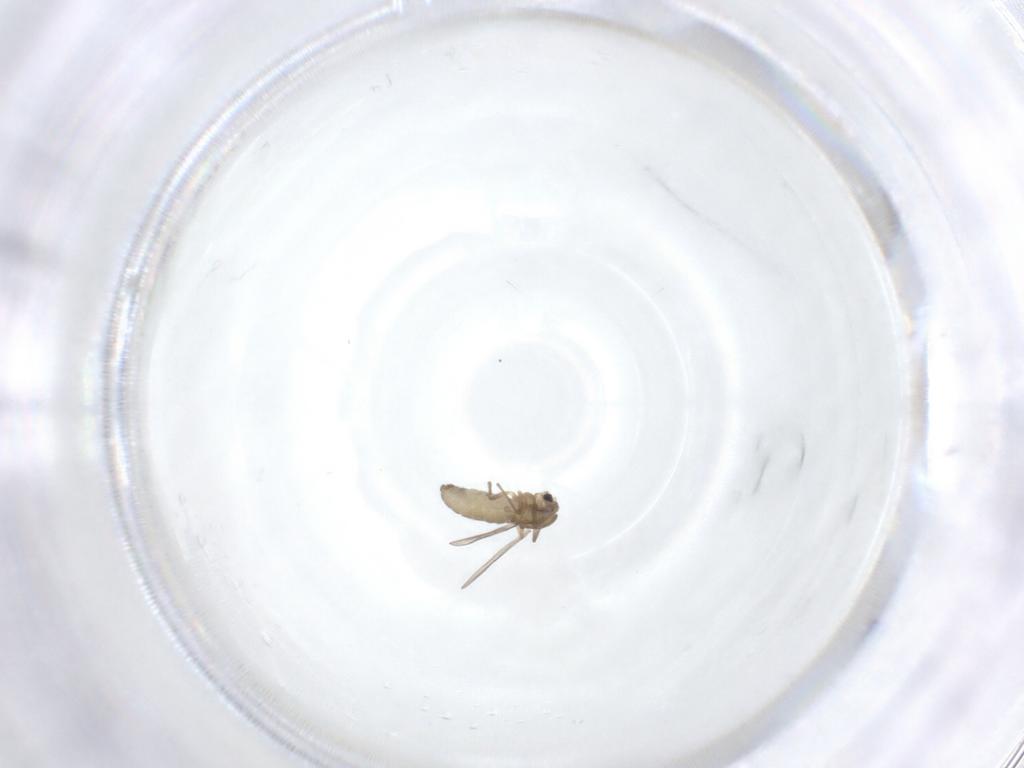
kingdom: Animalia
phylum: Arthropoda
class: Insecta
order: Diptera
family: Chironomidae
